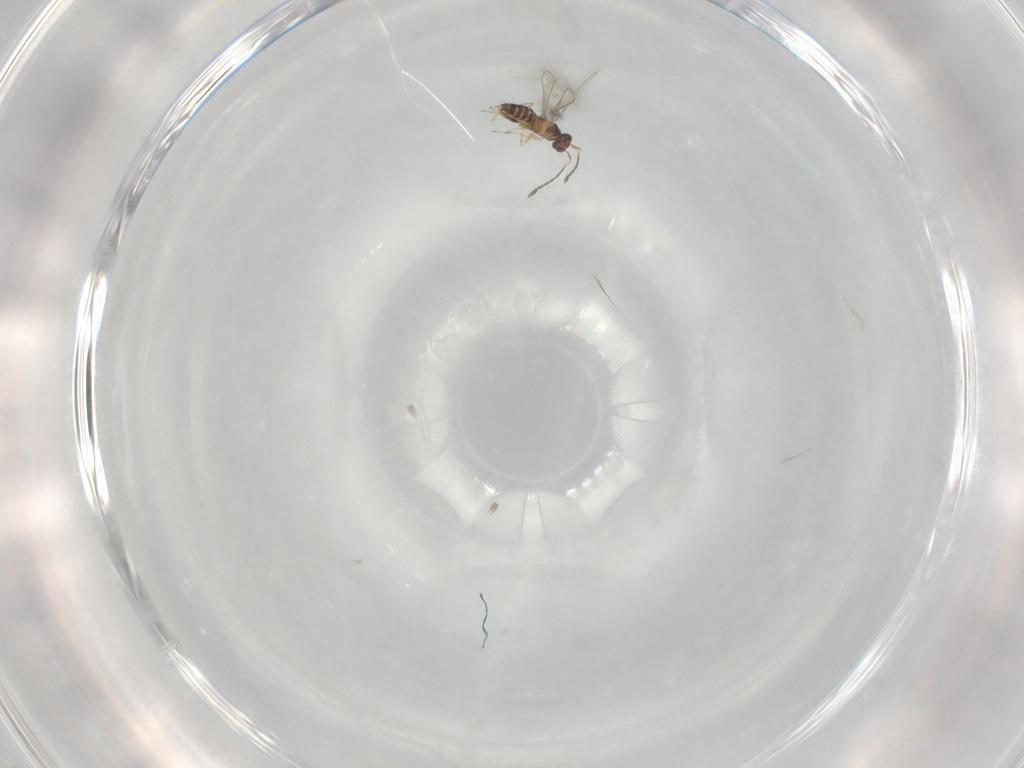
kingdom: Animalia
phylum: Arthropoda
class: Insecta
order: Hymenoptera
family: Mymaridae
